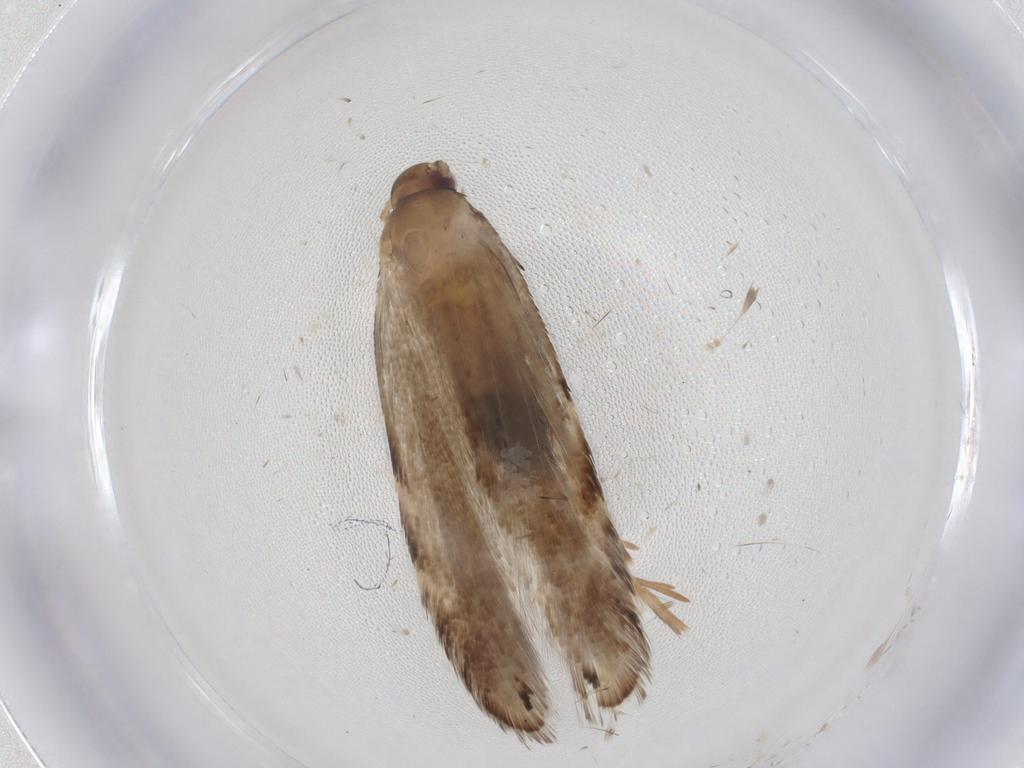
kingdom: Animalia
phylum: Arthropoda
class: Insecta
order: Lepidoptera
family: Gelechiidae
